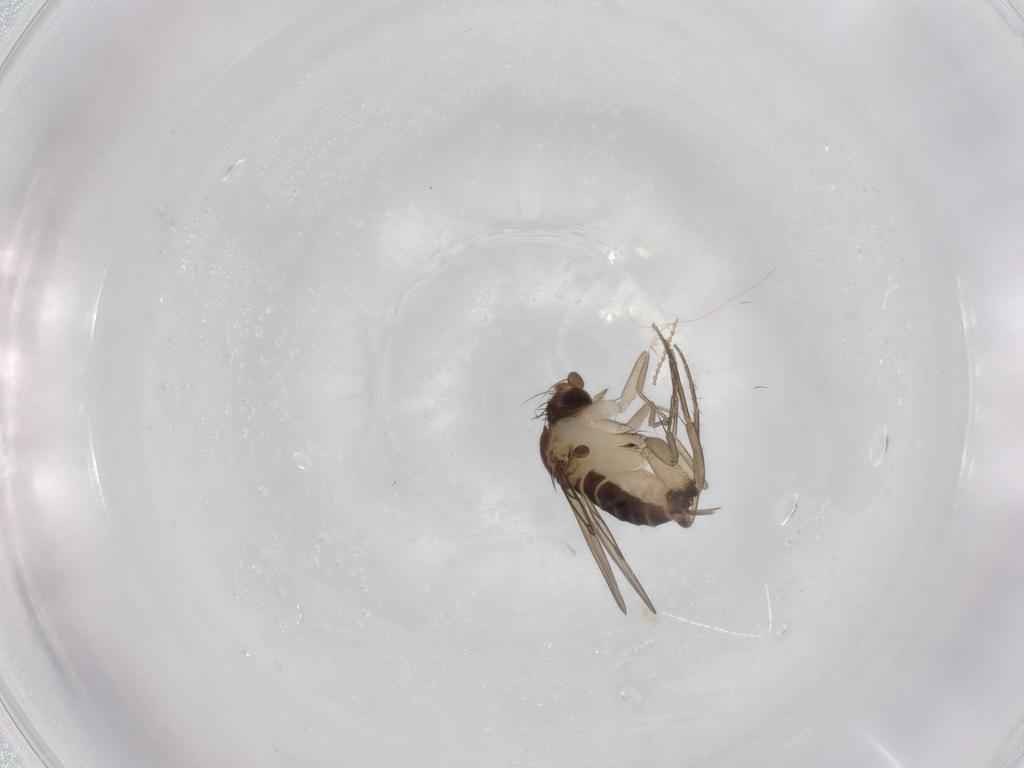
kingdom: Animalia
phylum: Arthropoda
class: Insecta
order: Diptera
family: Phoridae
